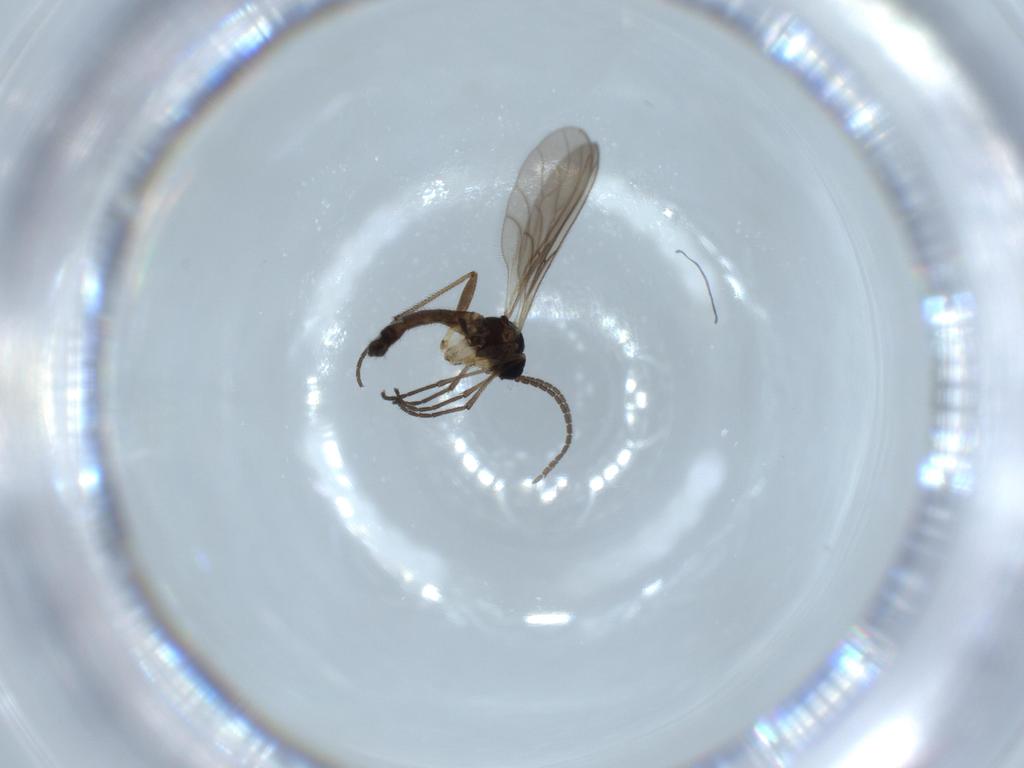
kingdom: Animalia
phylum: Arthropoda
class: Insecta
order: Diptera
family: Sciaridae
